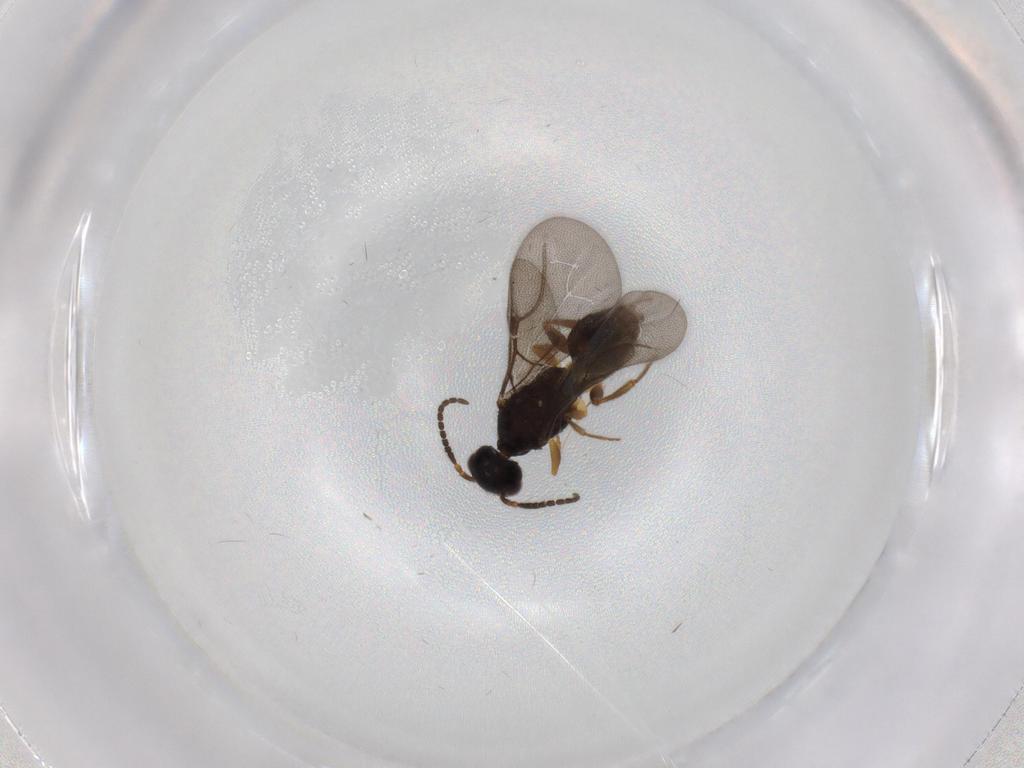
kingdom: Animalia
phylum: Arthropoda
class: Insecta
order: Hymenoptera
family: Bethylidae
